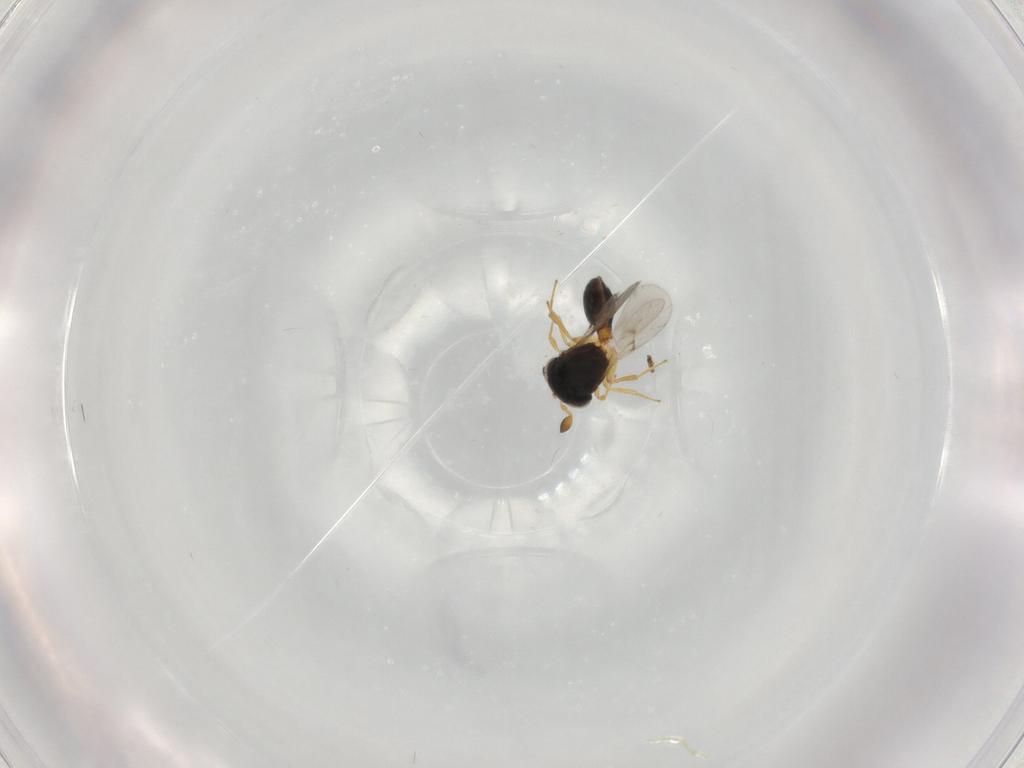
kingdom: Animalia
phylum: Arthropoda
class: Insecta
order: Hymenoptera
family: Scelionidae
